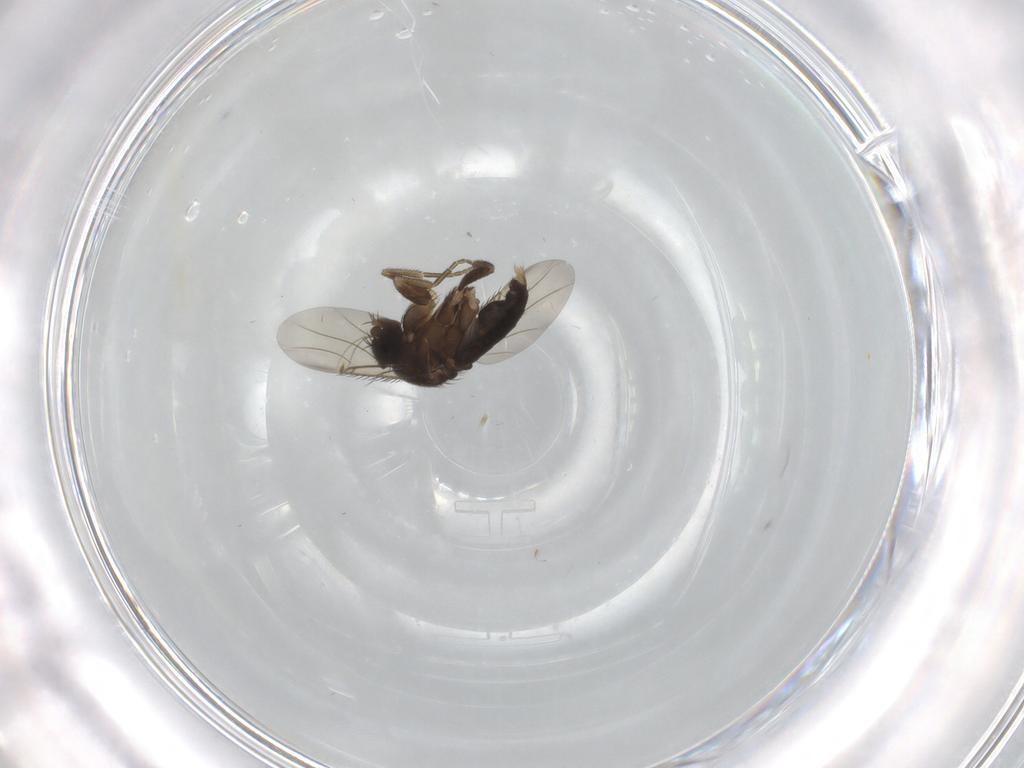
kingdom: Animalia
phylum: Arthropoda
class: Insecta
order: Diptera
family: Phoridae
